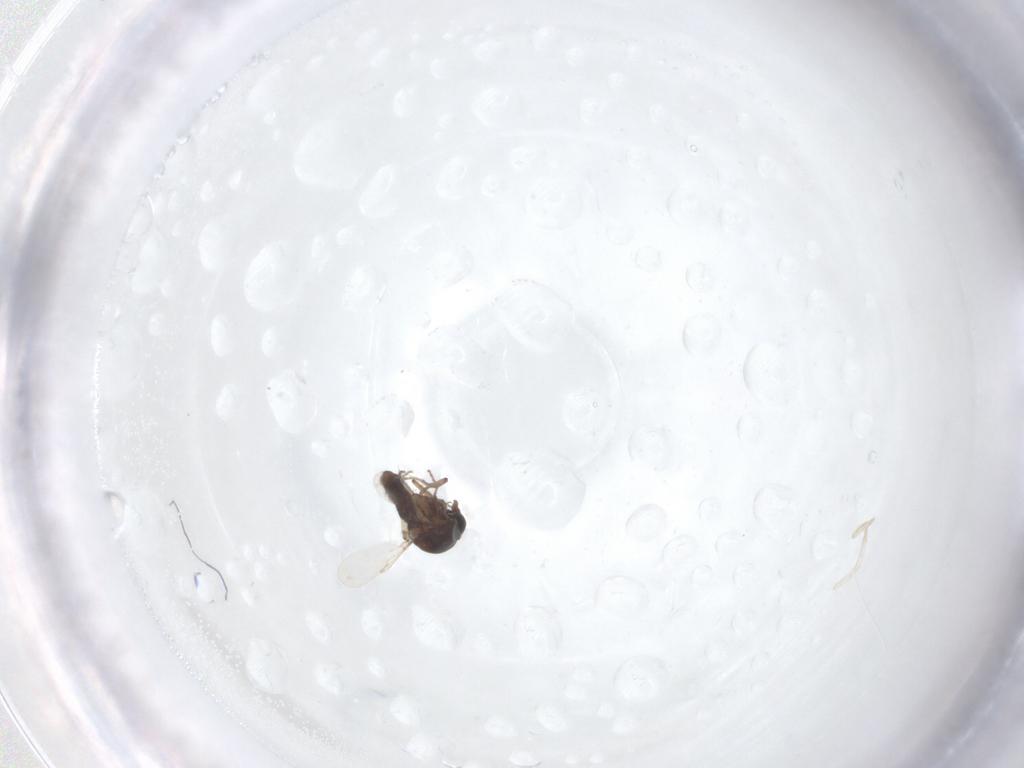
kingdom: Animalia
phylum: Arthropoda
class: Insecta
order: Diptera
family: Ceratopogonidae
